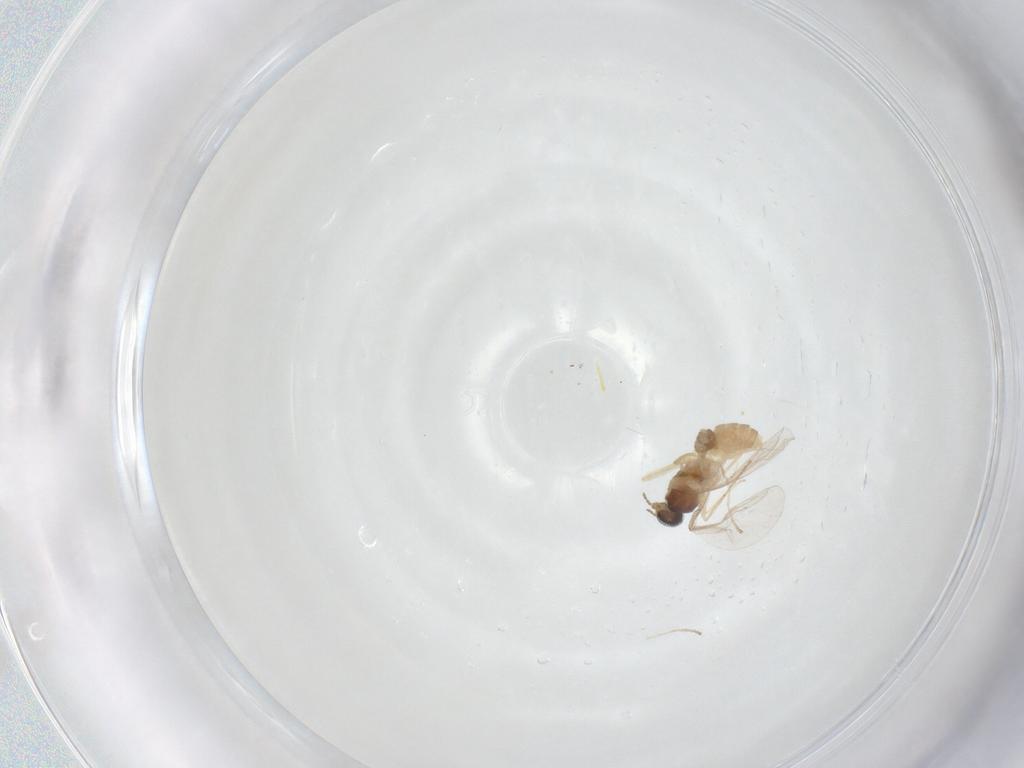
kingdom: Animalia
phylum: Arthropoda
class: Insecta
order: Diptera
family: Cecidomyiidae
